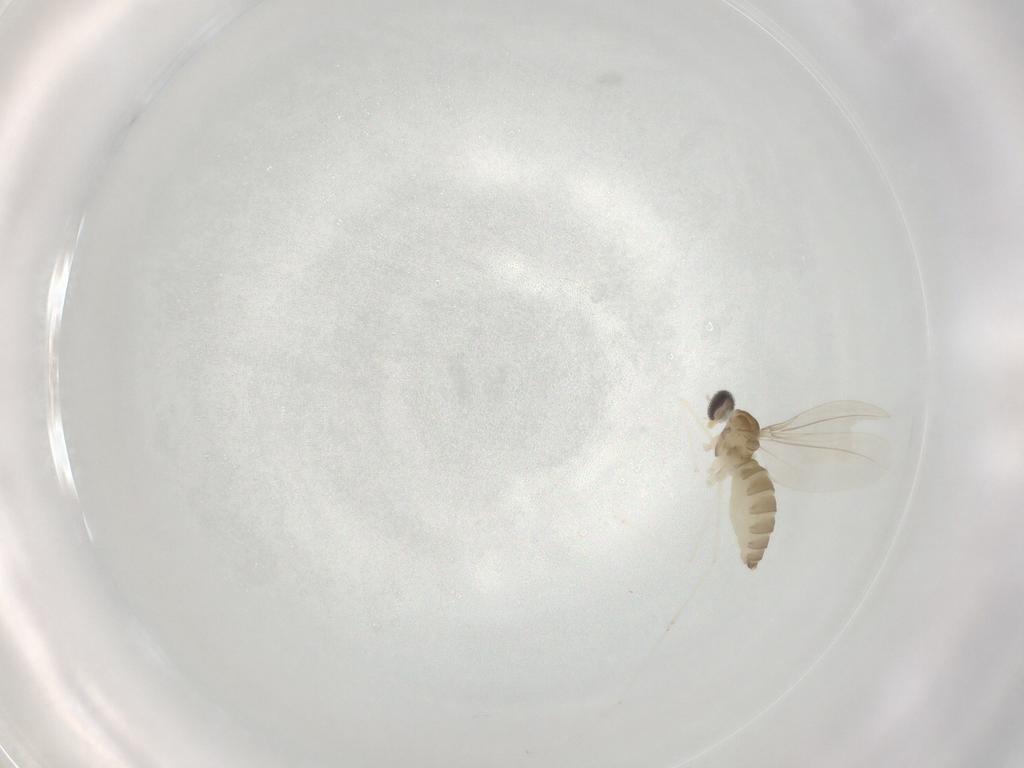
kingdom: Animalia
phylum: Arthropoda
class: Insecta
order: Diptera
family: Cecidomyiidae
